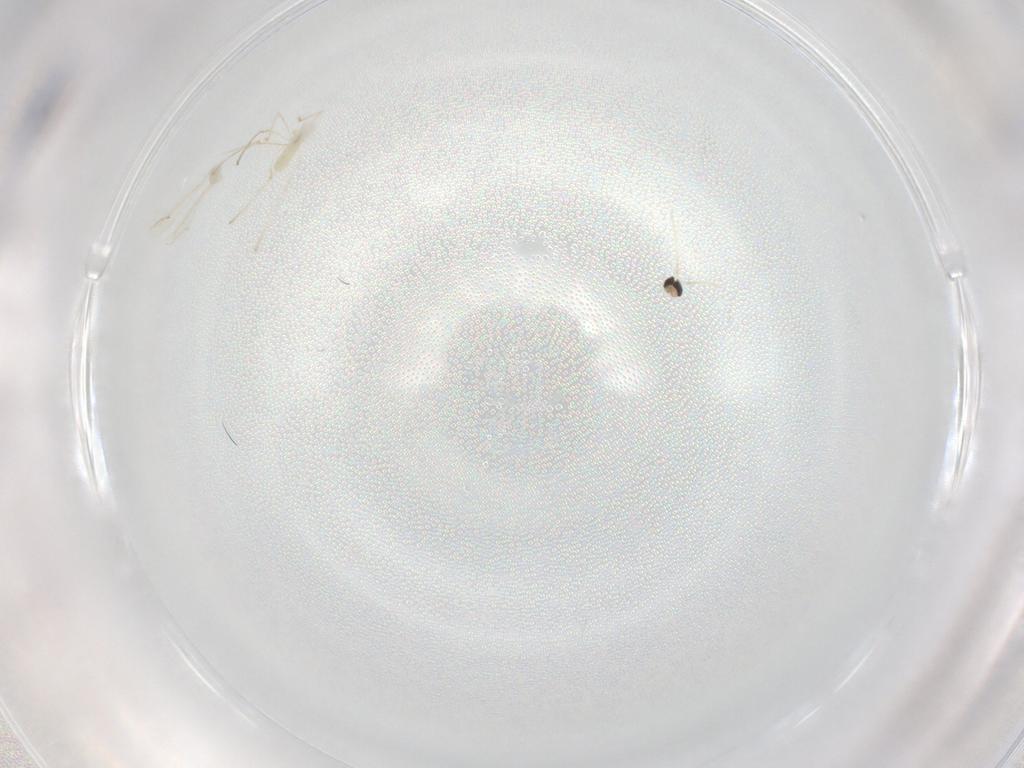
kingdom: Animalia
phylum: Arthropoda
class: Insecta
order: Diptera
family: Cecidomyiidae
